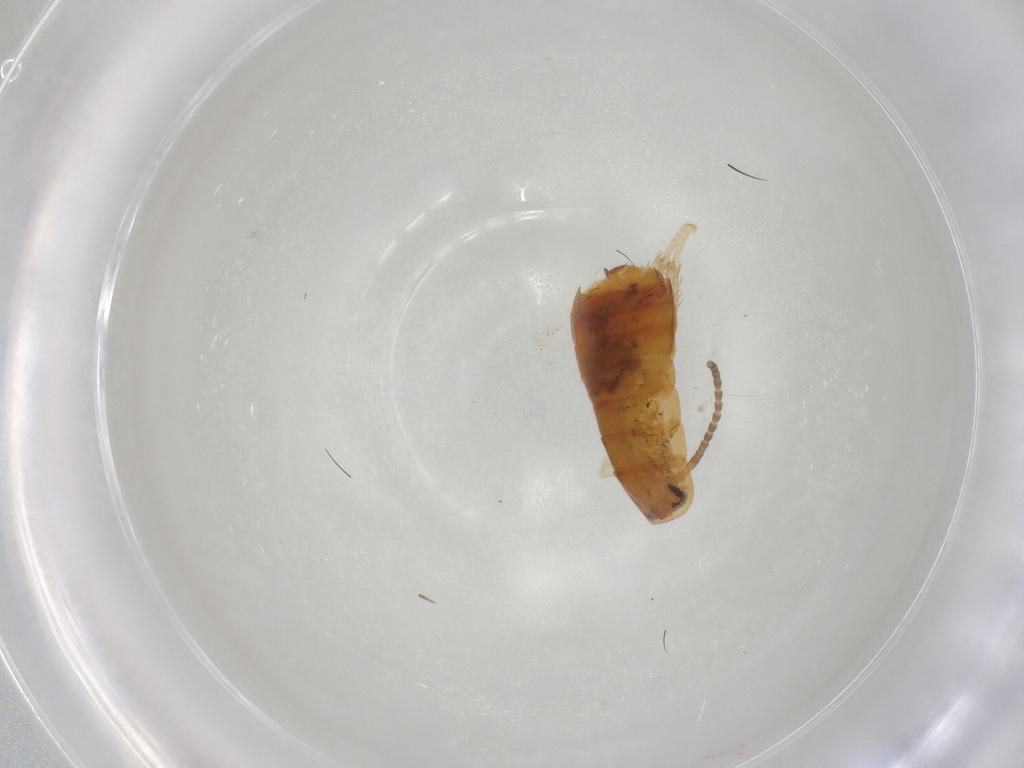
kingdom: Animalia
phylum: Arthropoda
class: Insecta
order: Blattodea
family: Blaberidae
